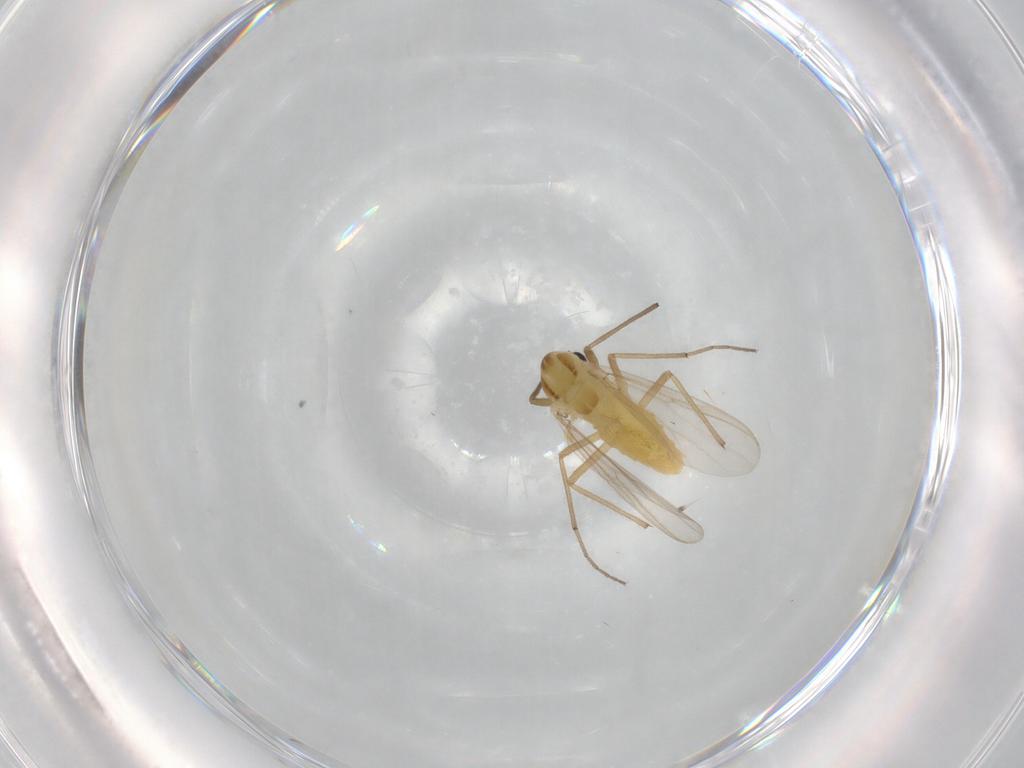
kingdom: Animalia
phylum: Arthropoda
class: Insecta
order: Diptera
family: Chironomidae
